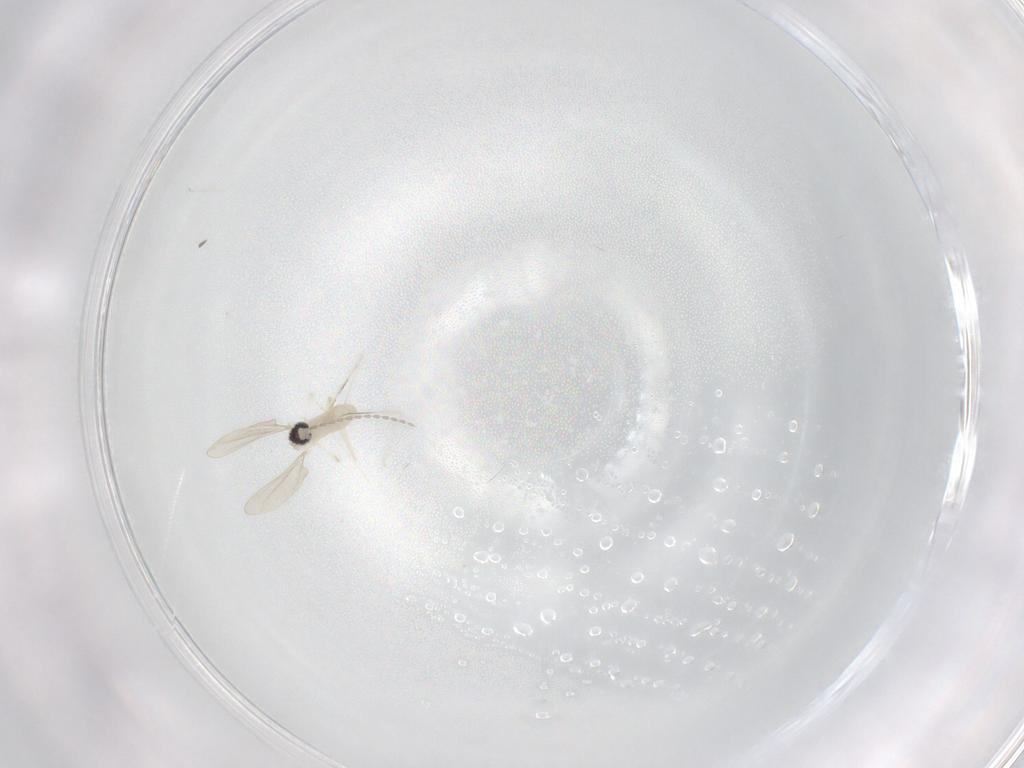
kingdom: Animalia
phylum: Arthropoda
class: Insecta
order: Diptera
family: Cecidomyiidae
